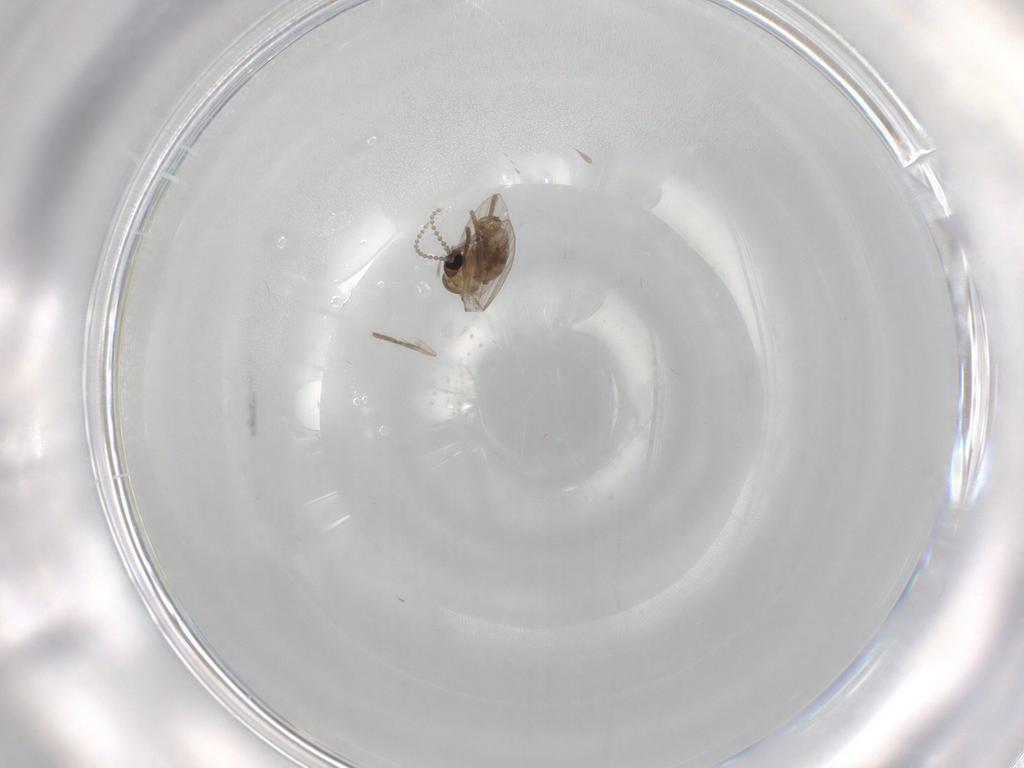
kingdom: Animalia
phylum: Arthropoda
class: Insecta
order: Diptera
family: Psychodidae
